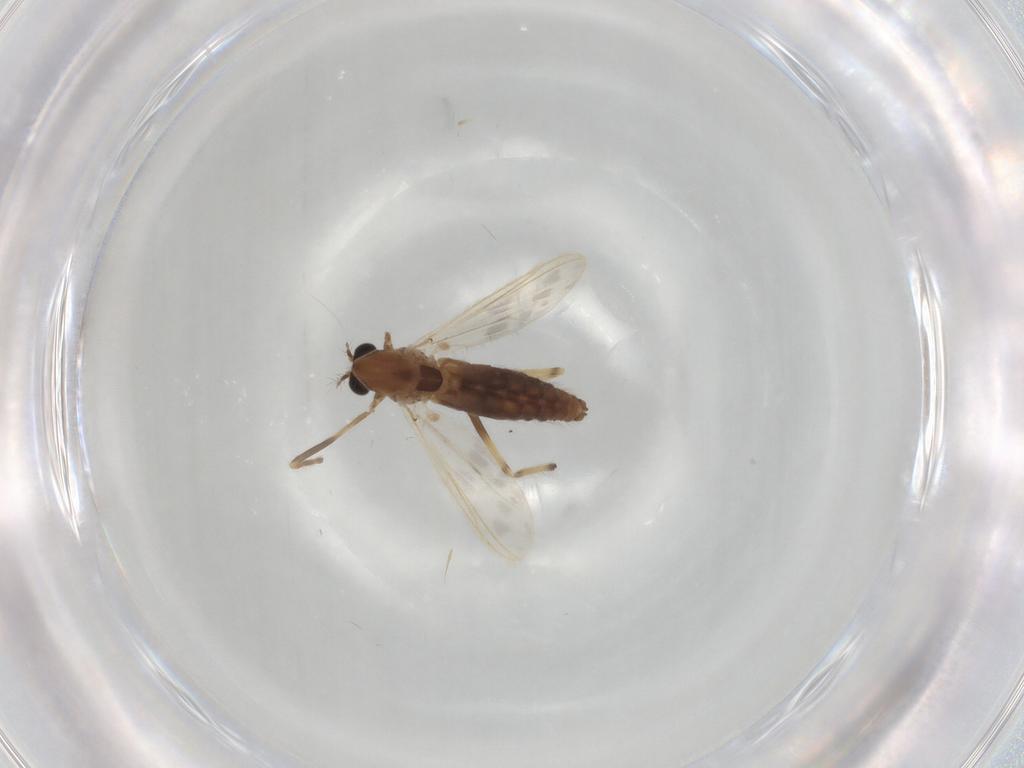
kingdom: Animalia
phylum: Arthropoda
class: Insecta
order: Diptera
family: Chironomidae
